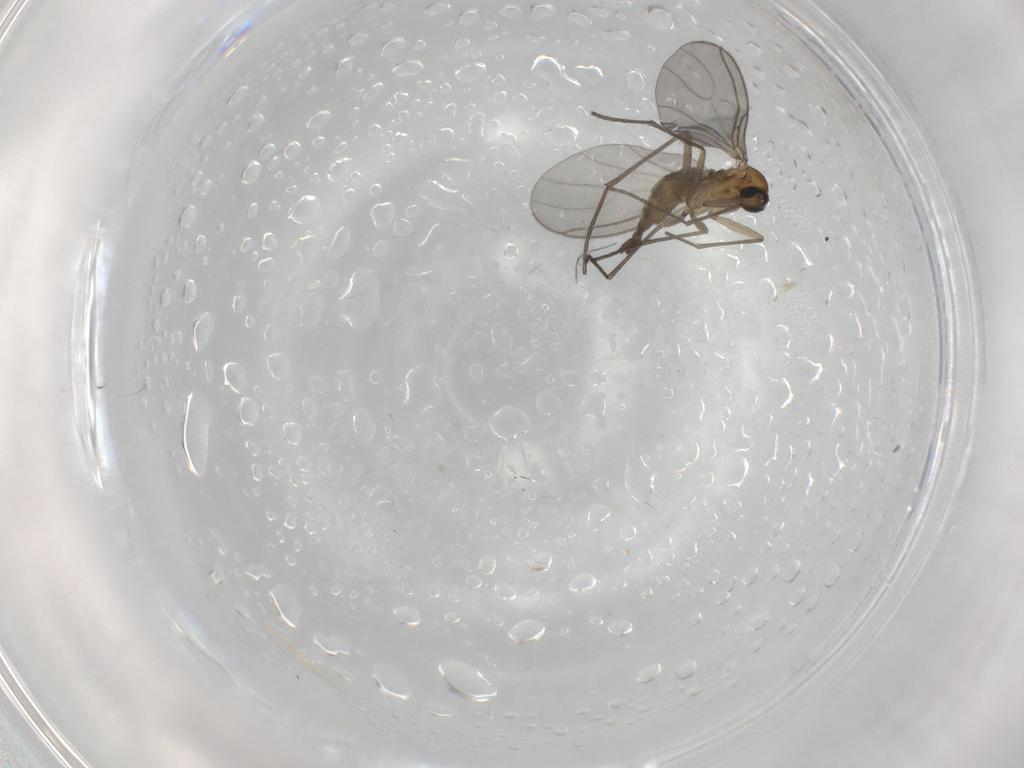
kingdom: Animalia
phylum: Arthropoda
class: Insecta
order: Diptera
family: Sciaridae
